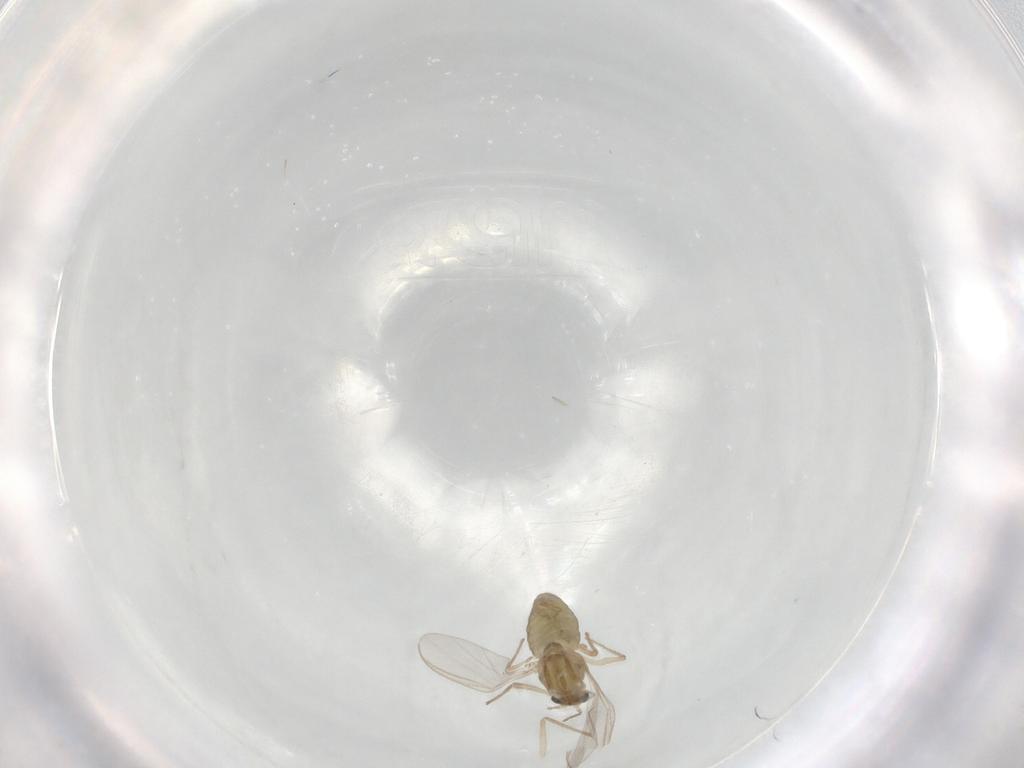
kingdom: Animalia
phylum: Arthropoda
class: Insecta
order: Diptera
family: Chironomidae
